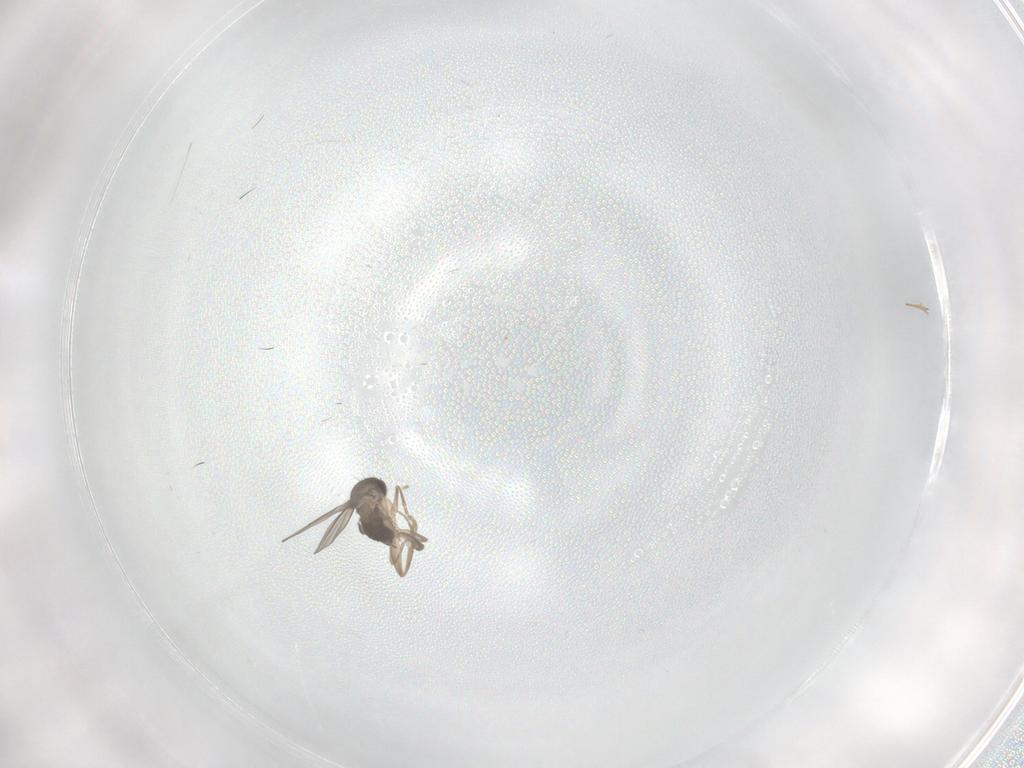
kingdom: Animalia
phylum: Arthropoda
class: Insecta
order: Diptera
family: Phoridae
